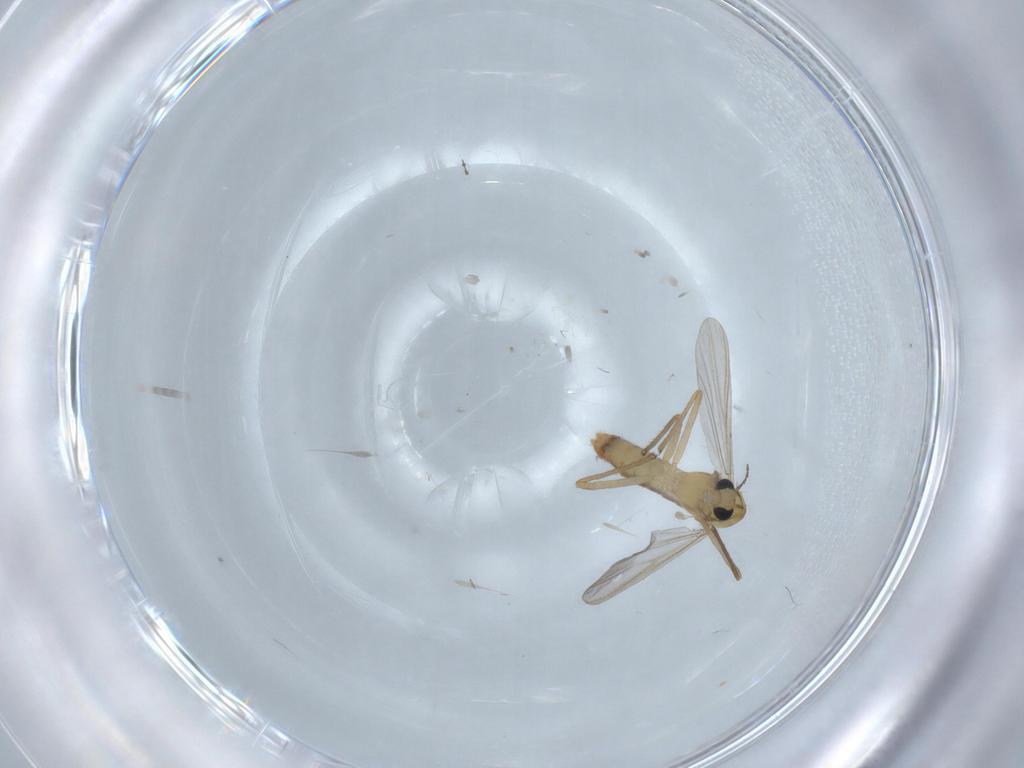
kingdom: Animalia
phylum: Arthropoda
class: Insecta
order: Diptera
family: Chironomidae
